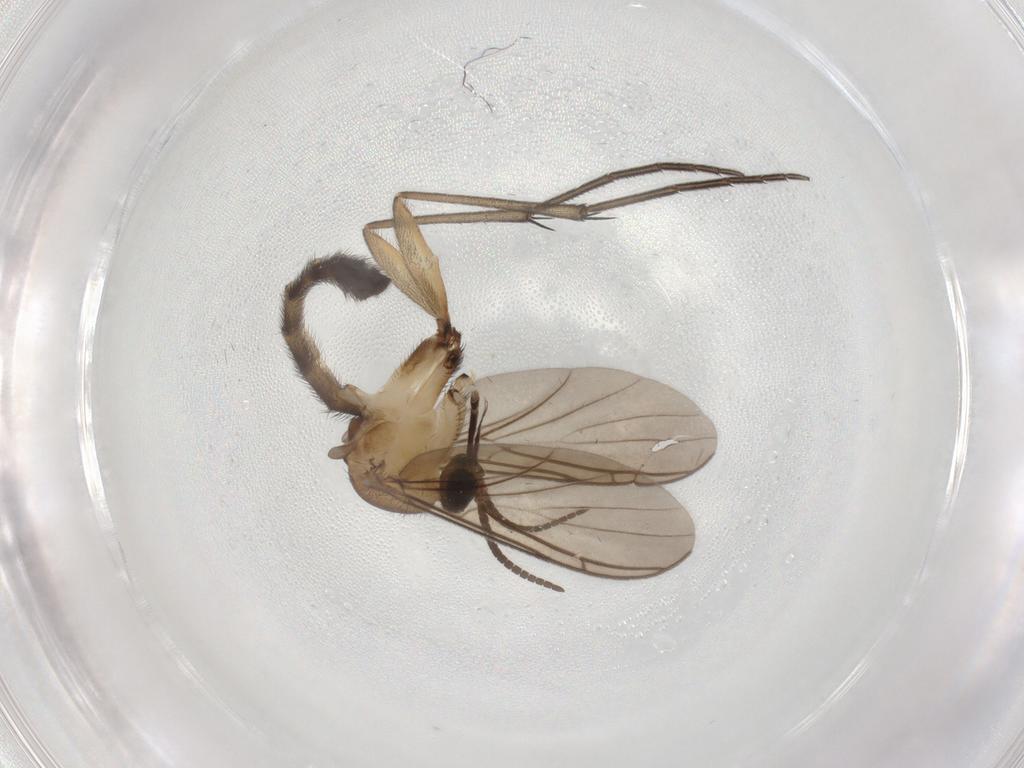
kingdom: Animalia
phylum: Arthropoda
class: Insecta
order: Diptera
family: Keroplatidae
